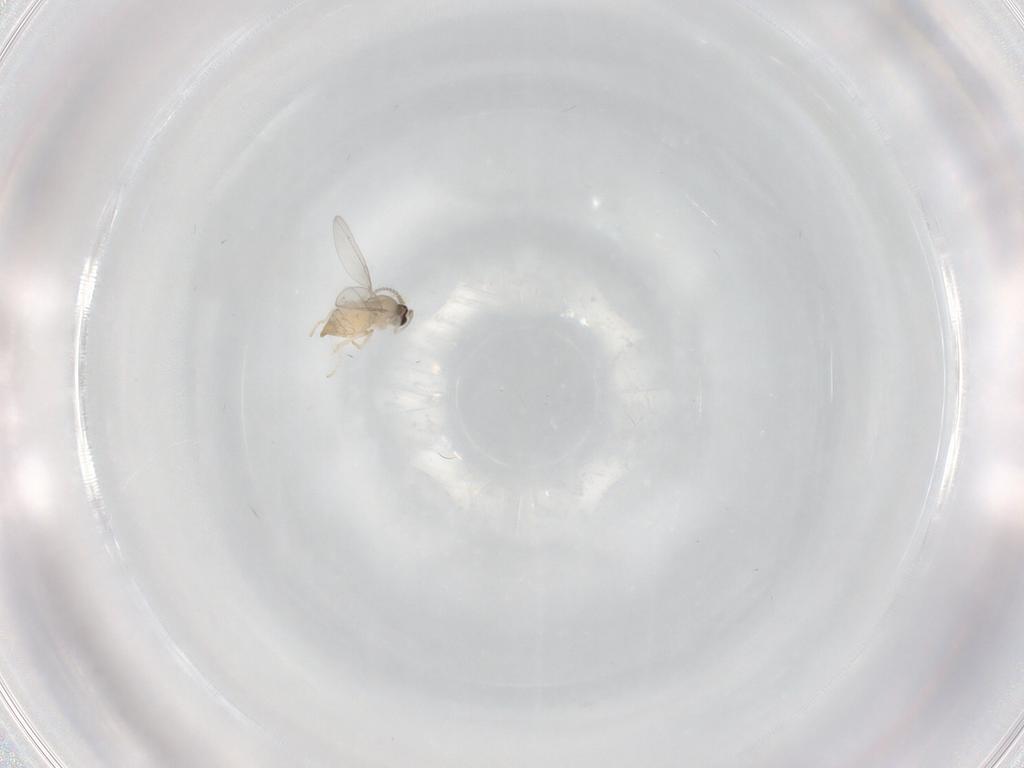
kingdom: Animalia
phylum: Arthropoda
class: Insecta
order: Diptera
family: Cecidomyiidae
